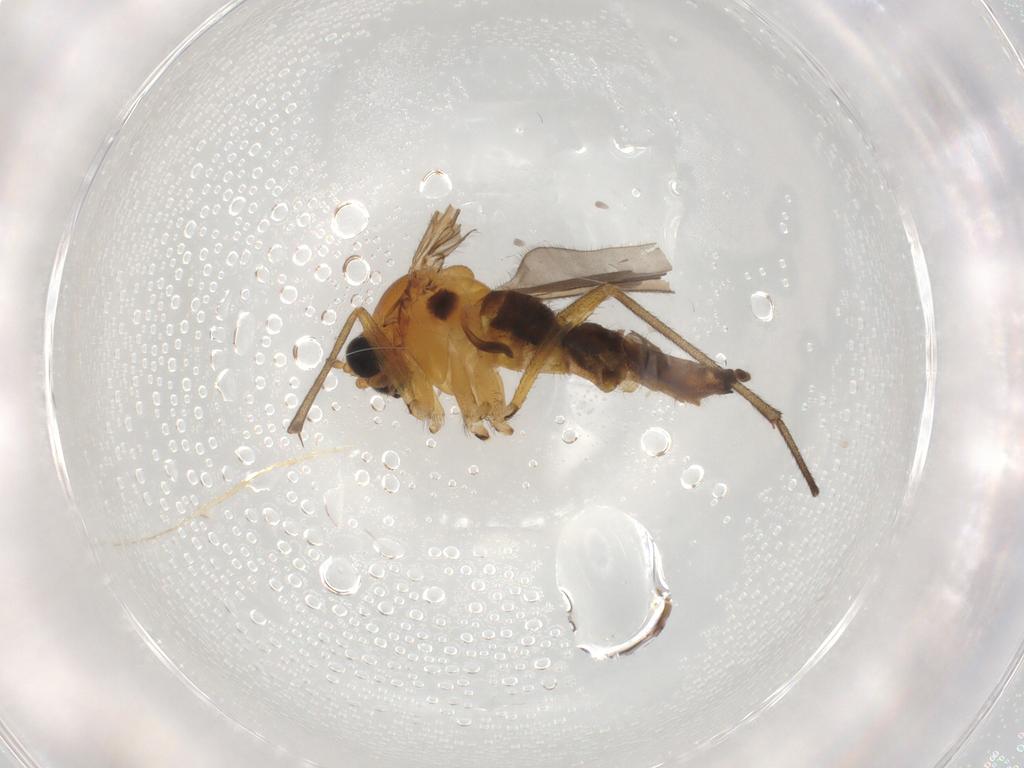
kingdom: Animalia
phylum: Arthropoda
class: Insecta
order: Diptera
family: Sciaridae
